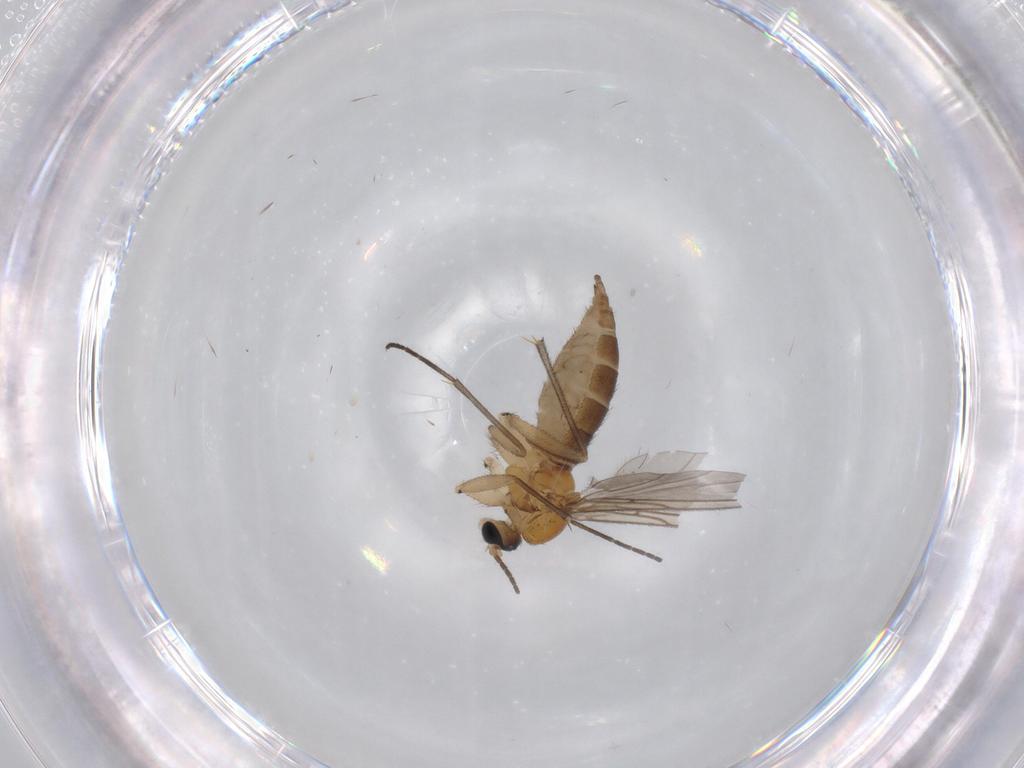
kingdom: Animalia
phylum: Arthropoda
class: Insecta
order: Diptera
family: Sciaridae
